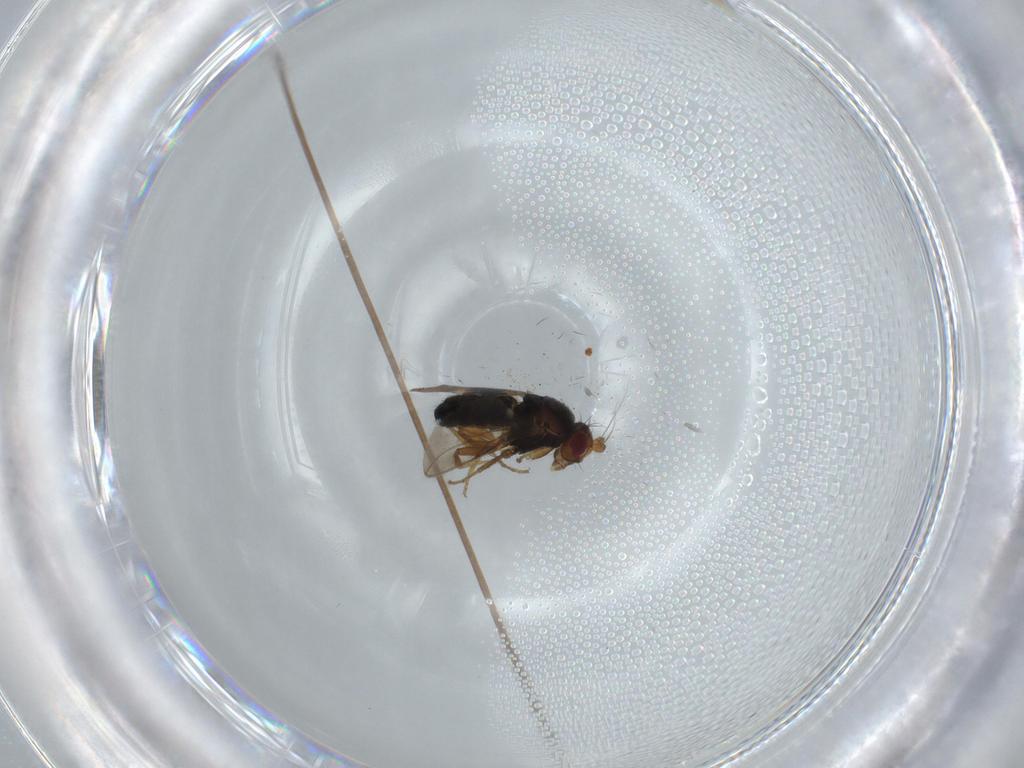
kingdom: Animalia
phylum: Arthropoda
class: Insecta
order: Diptera
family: Sphaeroceridae
